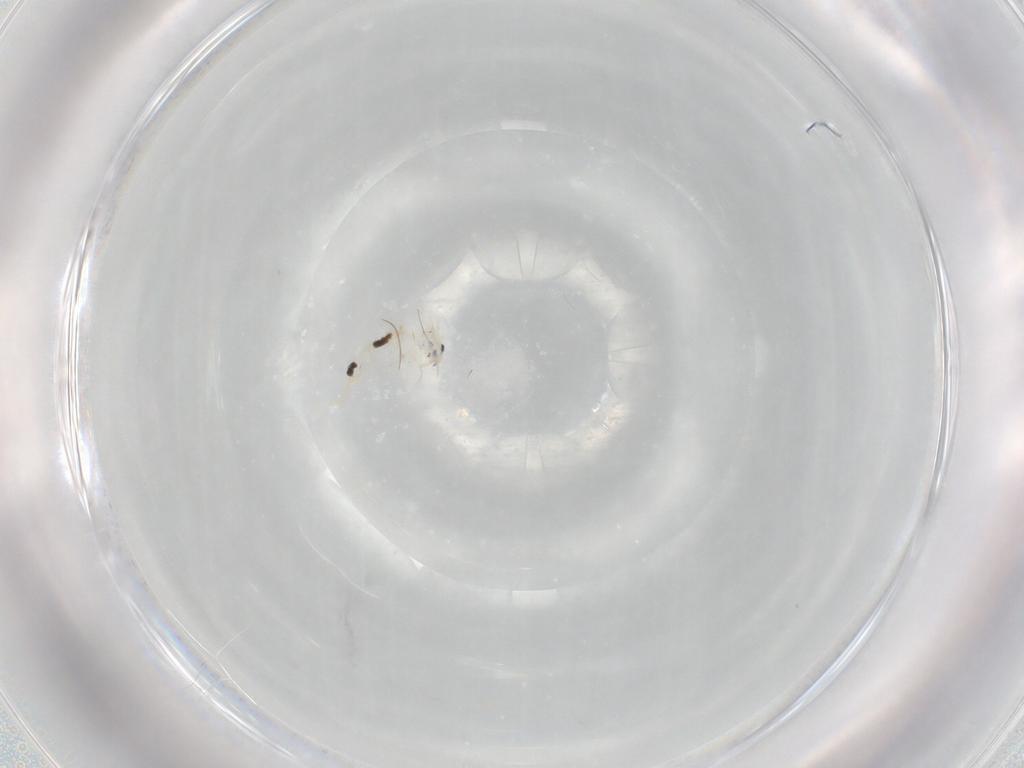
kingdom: Animalia
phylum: Arthropoda
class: Collembola
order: Entomobryomorpha
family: Entomobryidae
